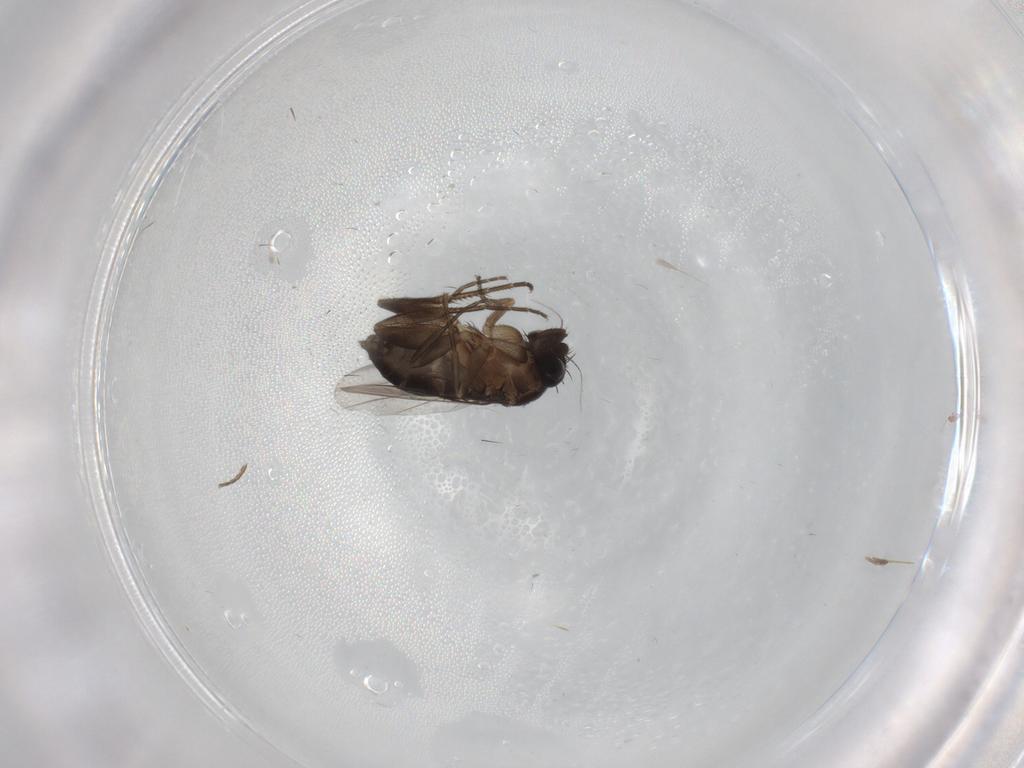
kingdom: Animalia
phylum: Arthropoda
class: Insecta
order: Diptera
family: Phoridae
